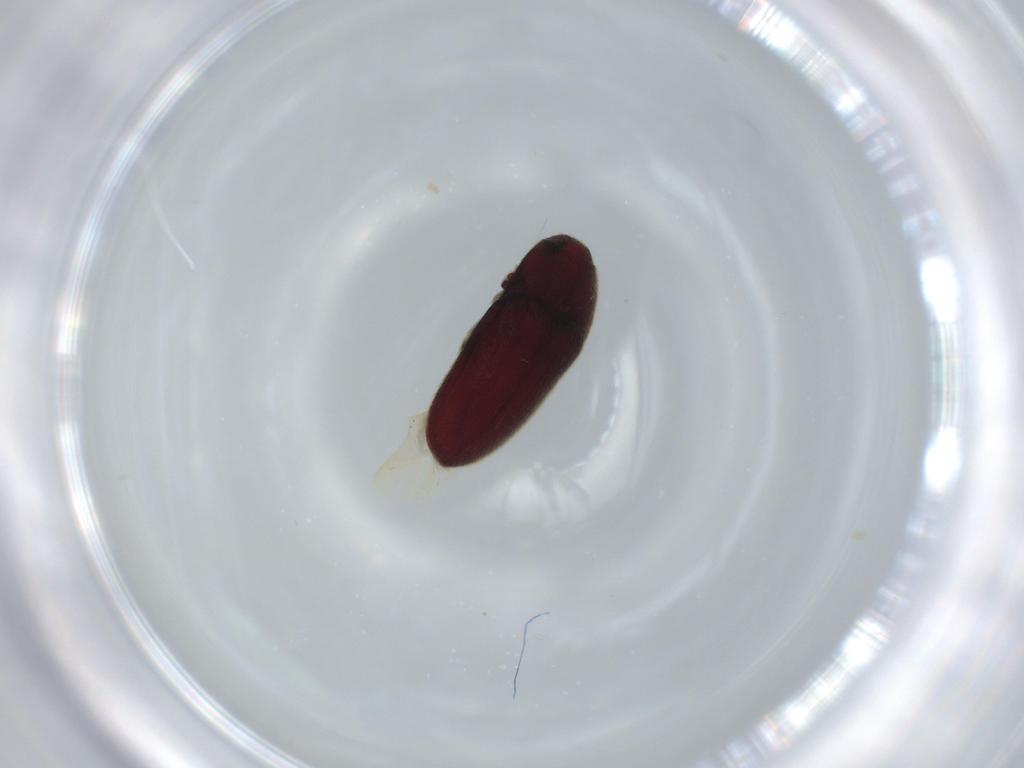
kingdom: Animalia
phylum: Arthropoda
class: Insecta
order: Coleoptera
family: Throscidae
